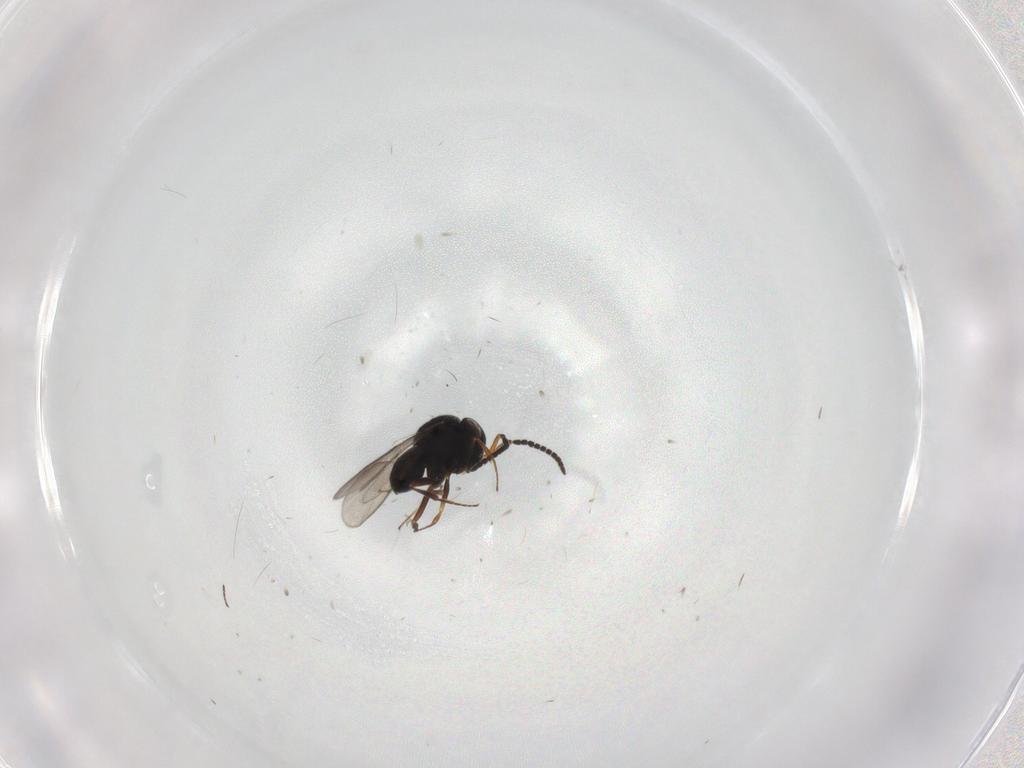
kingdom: Animalia
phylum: Arthropoda
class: Insecta
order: Hymenoptera
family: Scelionidae
